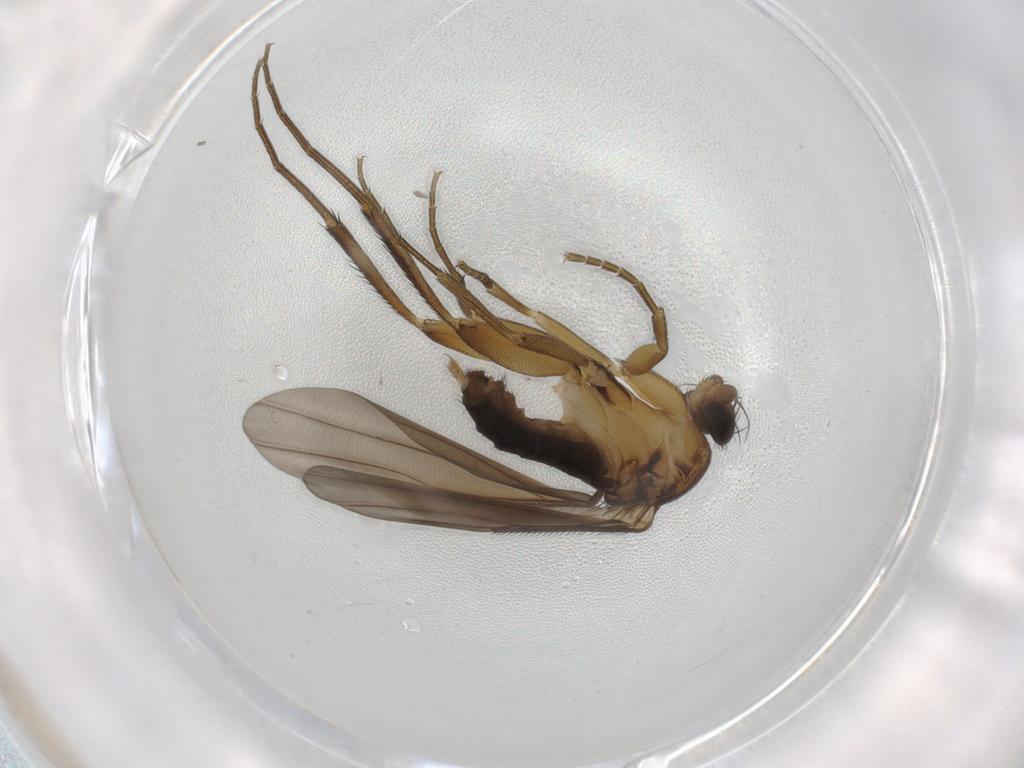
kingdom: Animalia
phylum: Arthropoda
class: Insecta
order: Diptera
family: Phoridae
